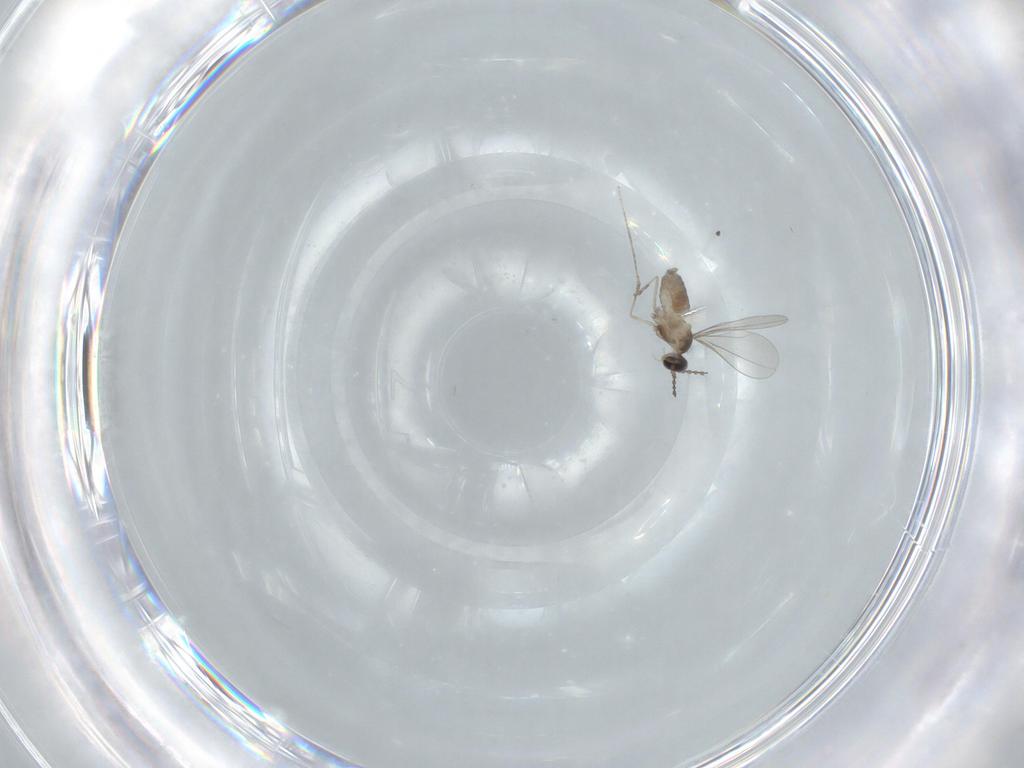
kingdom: Animalia
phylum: Arthropoda
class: Insecta
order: Diptera
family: Cecidomyiidae
